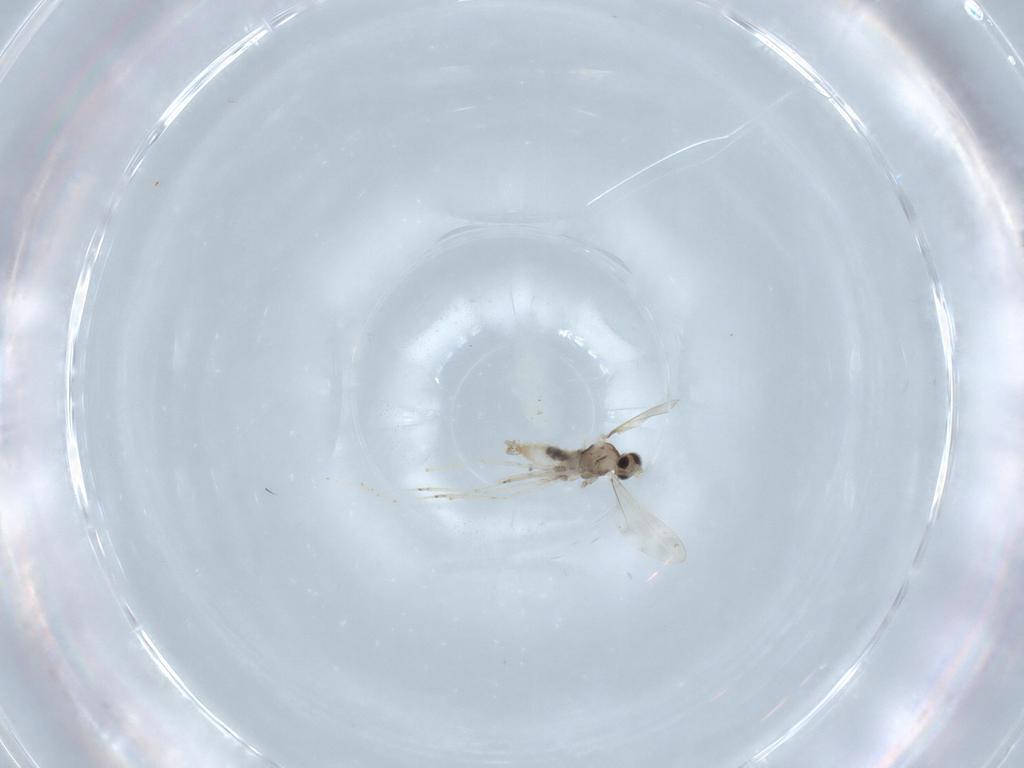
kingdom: Animalia
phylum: Arthropoda
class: Insecta
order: Diptera
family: Cecidomyiidae
